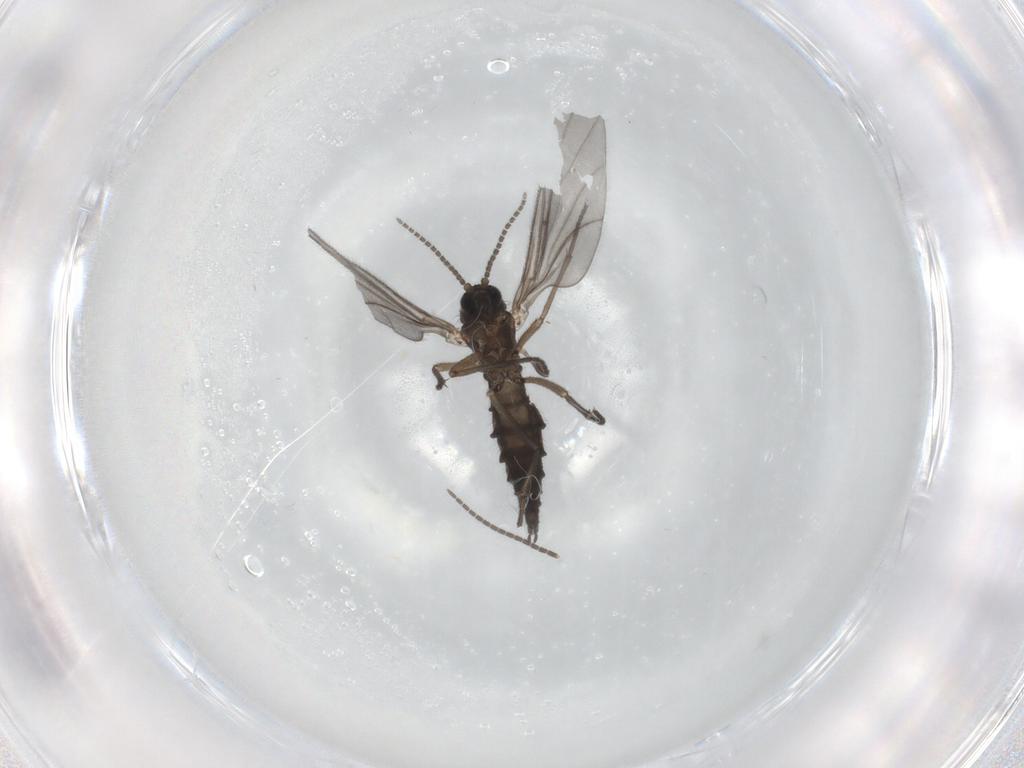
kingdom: Animalia
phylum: Arthropoda
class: Insecta
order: Diptera
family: Sciaridae
